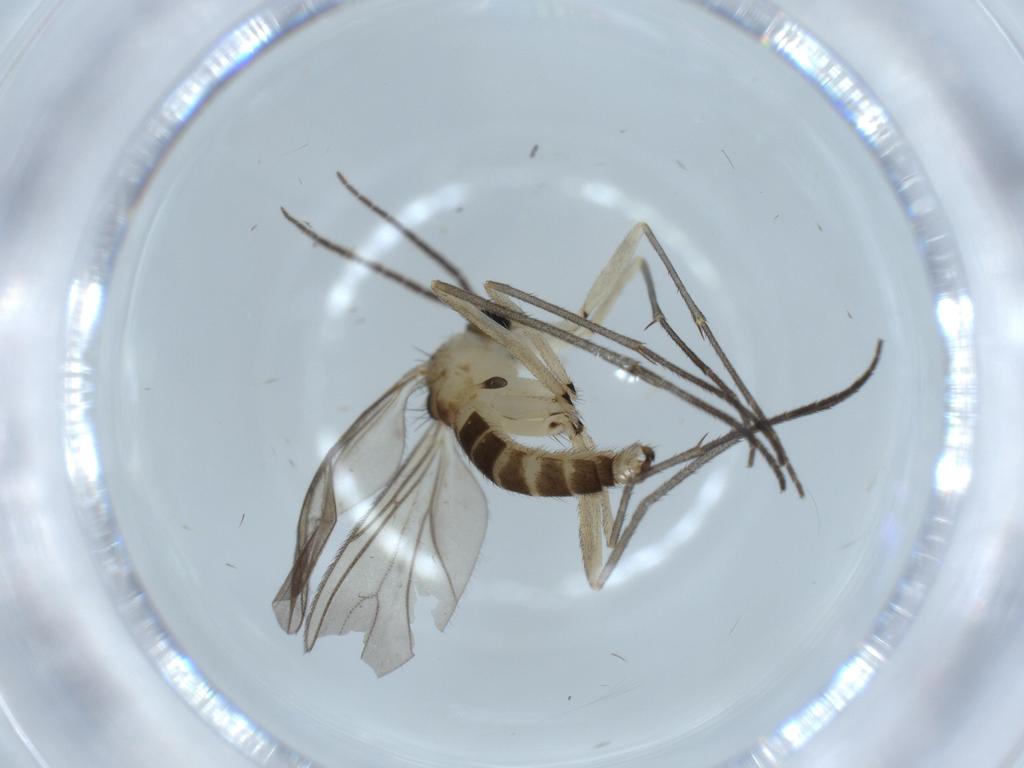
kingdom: Animalia
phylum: Arthropoda
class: Insecta
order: Diptera
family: Sciaridae
